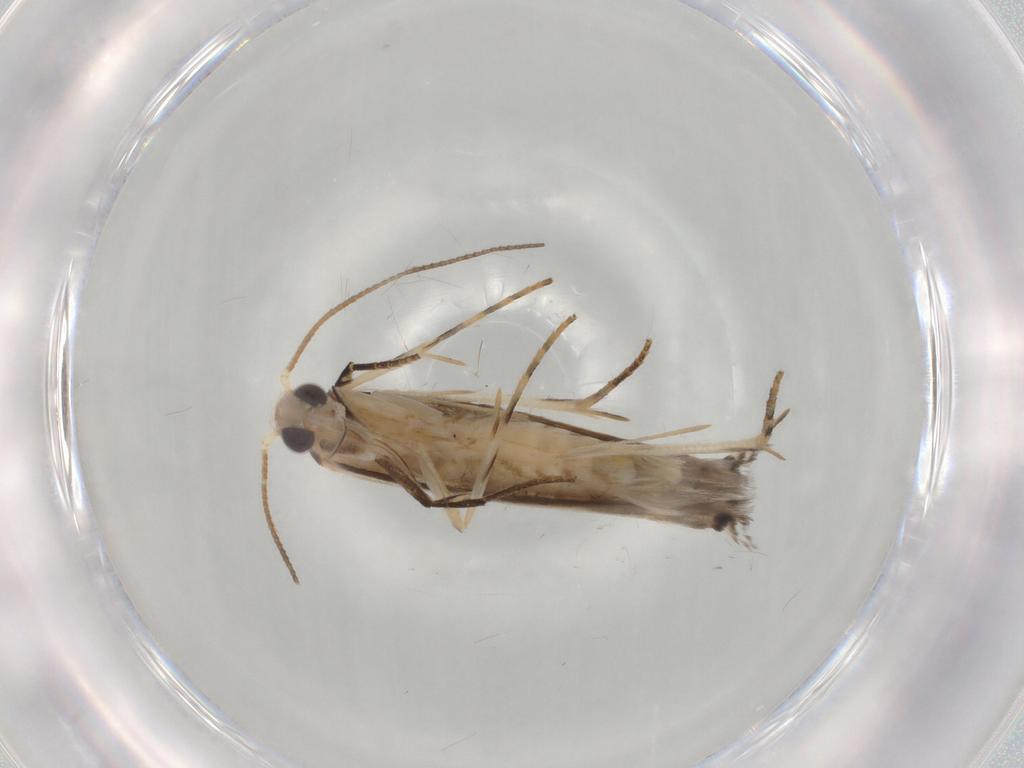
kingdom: Animalia
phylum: Arthropoda
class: Insecta
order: Lepidoptera
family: Gelechiidae
